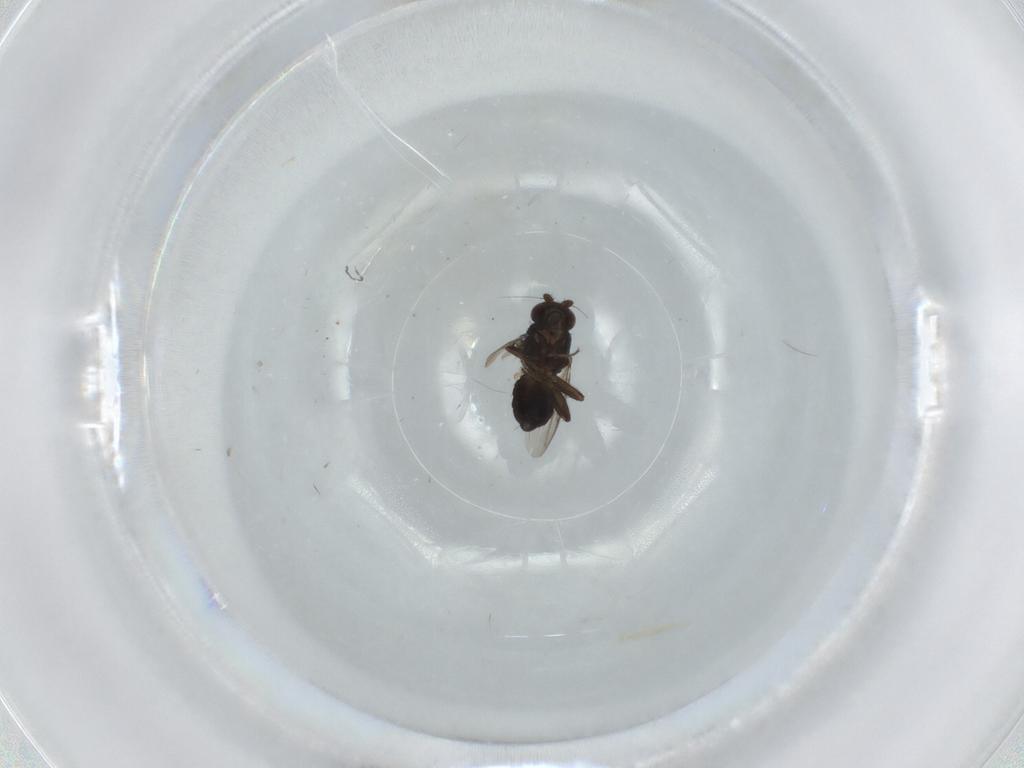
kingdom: Animalia
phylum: Arthropoda
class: Insecta
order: Diptera
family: Sphaeroceridae
